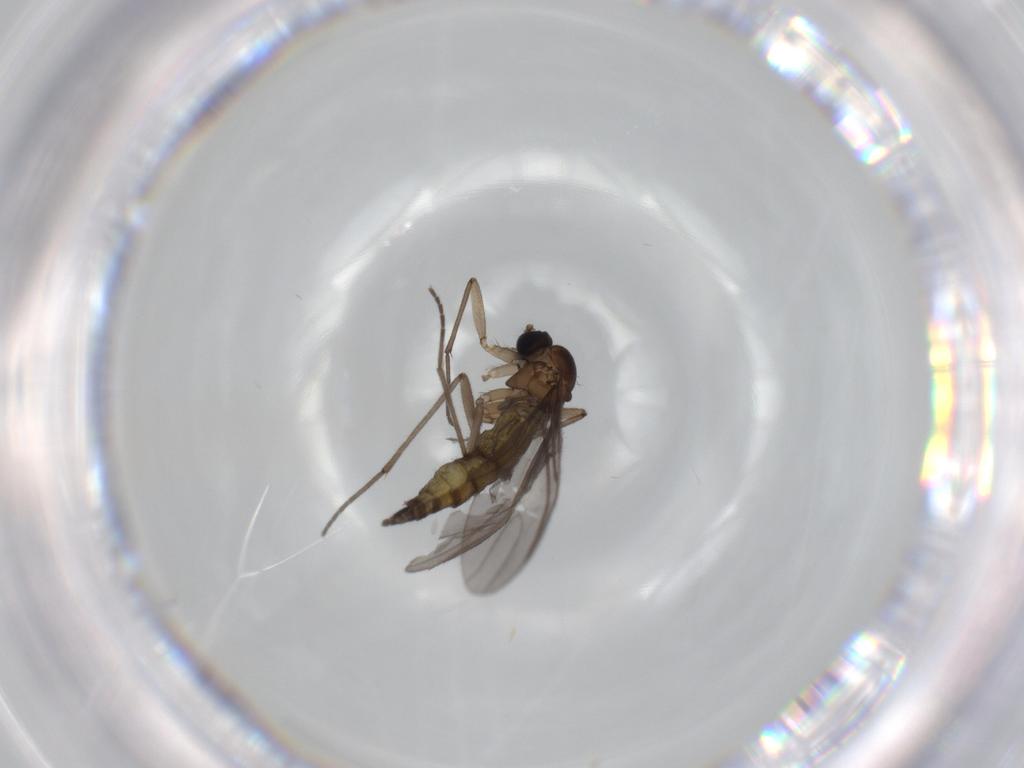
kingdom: Animalia
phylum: Arthropoda
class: Insecta
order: Diptera
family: Sciaridae
